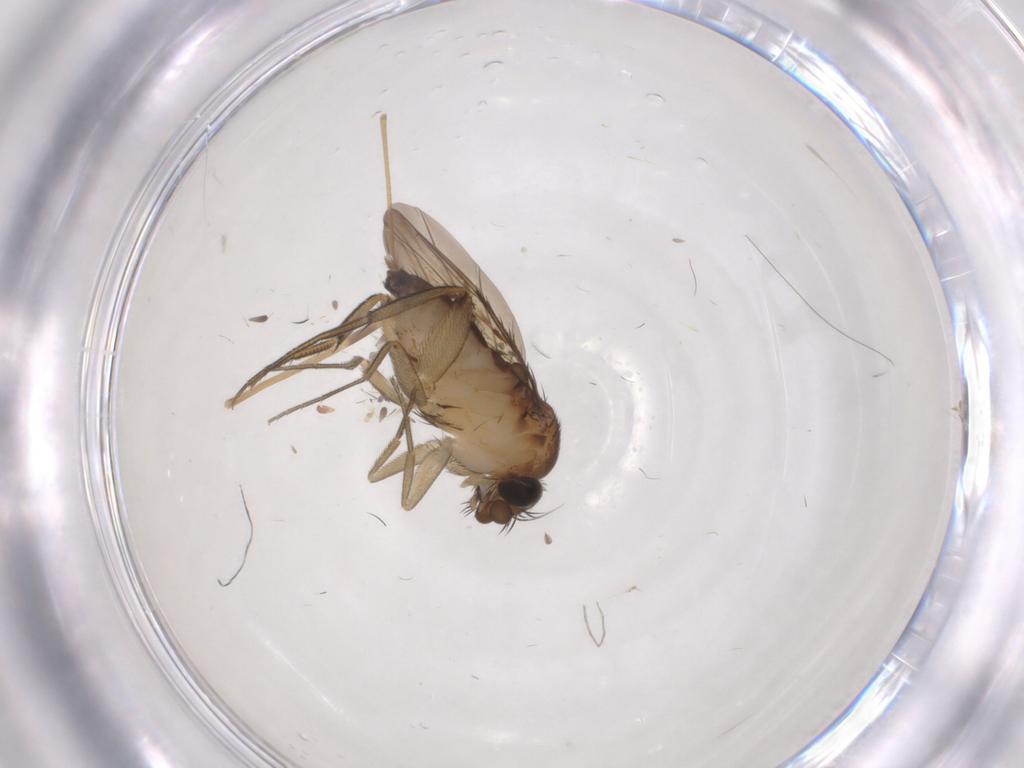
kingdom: Animalia
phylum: Arthropoda
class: Insecta
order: Diptera
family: Phoridae
